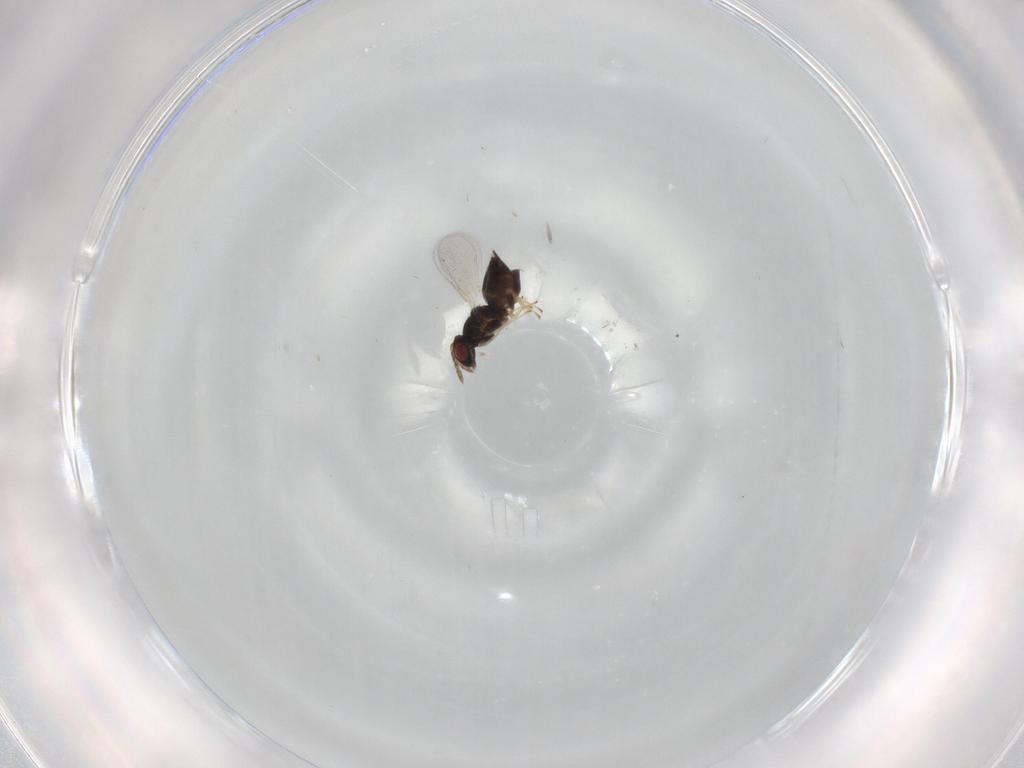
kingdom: Animalia
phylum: Arthropoda
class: Insecta
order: Hymenoptera
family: Eulophidae
